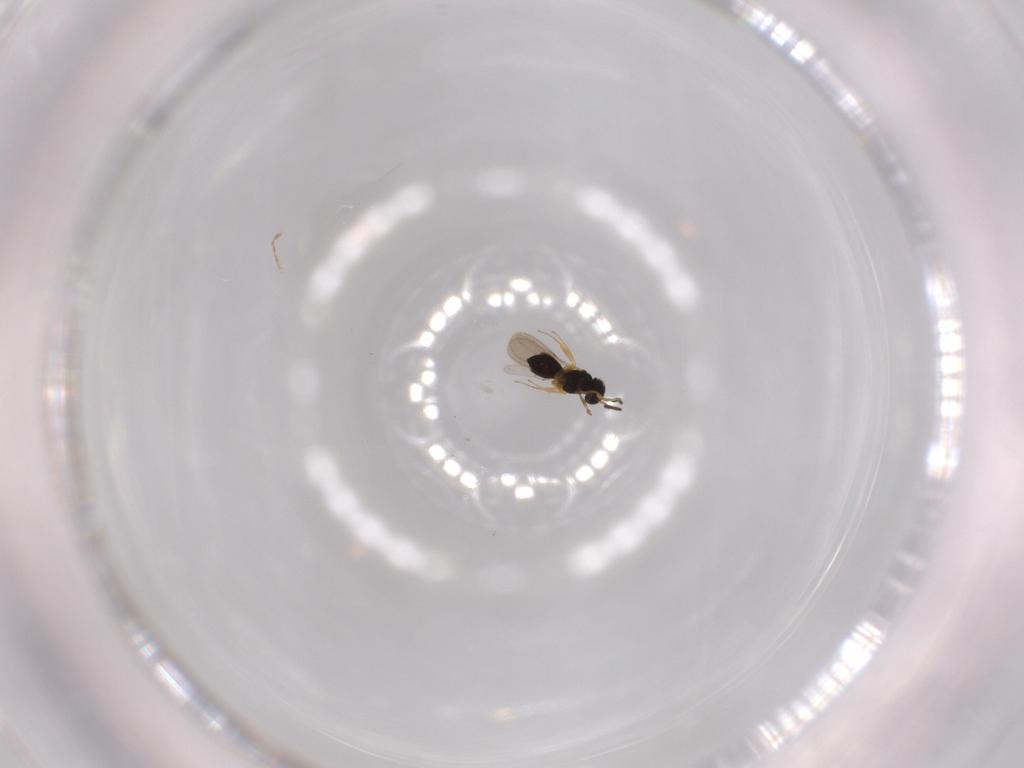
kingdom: Animalia
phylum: Arthropoda
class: Insecta
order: Hymenoptera
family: Scelionidae
